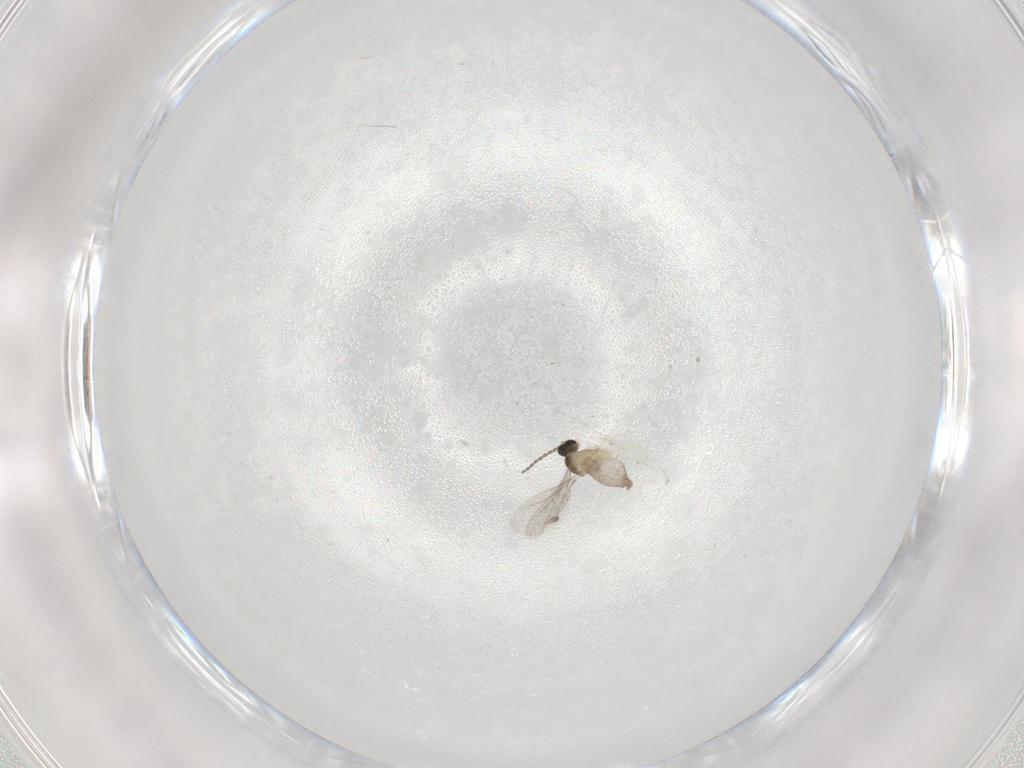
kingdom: Animalia
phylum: Arthropoda
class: Insecta
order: Diptera
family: Cecidomyiidae
